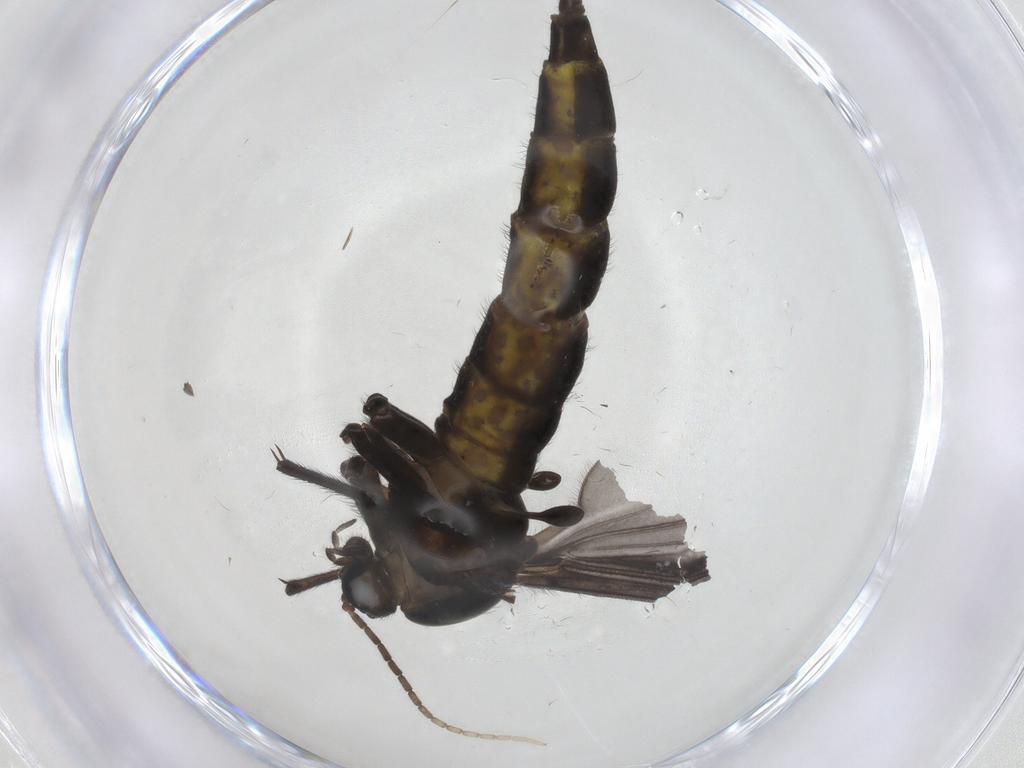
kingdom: Animalia
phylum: Arthropoda
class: Insecta
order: Diptera
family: Sciaridae
